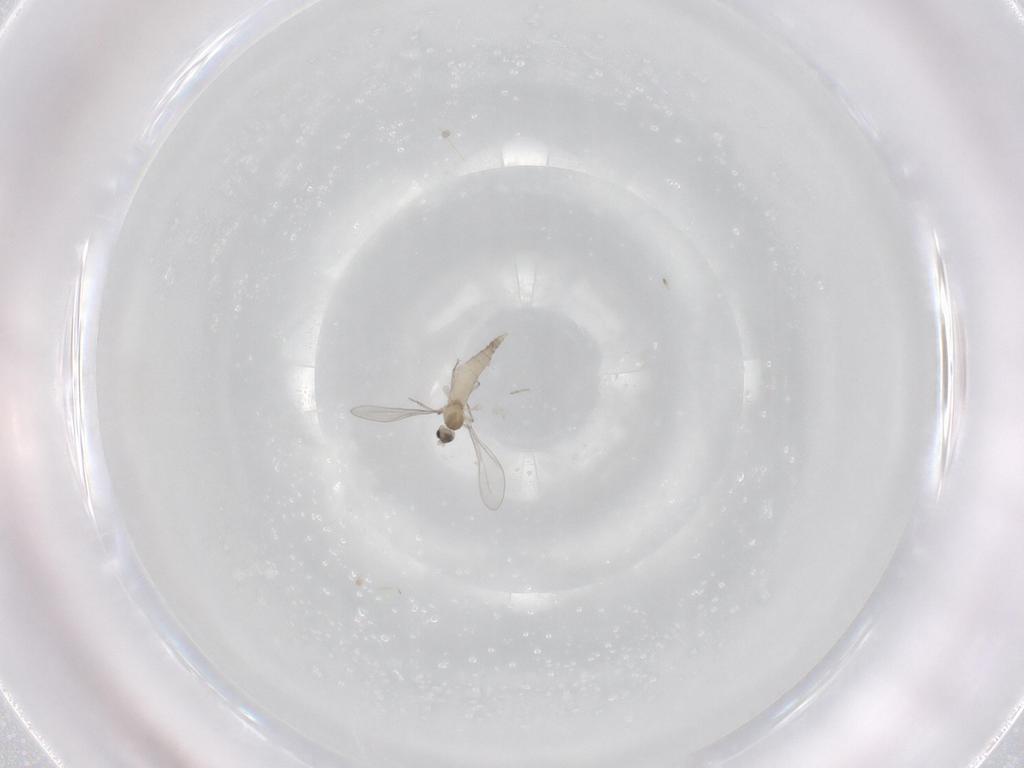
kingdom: Animalia
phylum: Arthropoda
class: Insecta
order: Diptera
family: Cecidomyiidae
